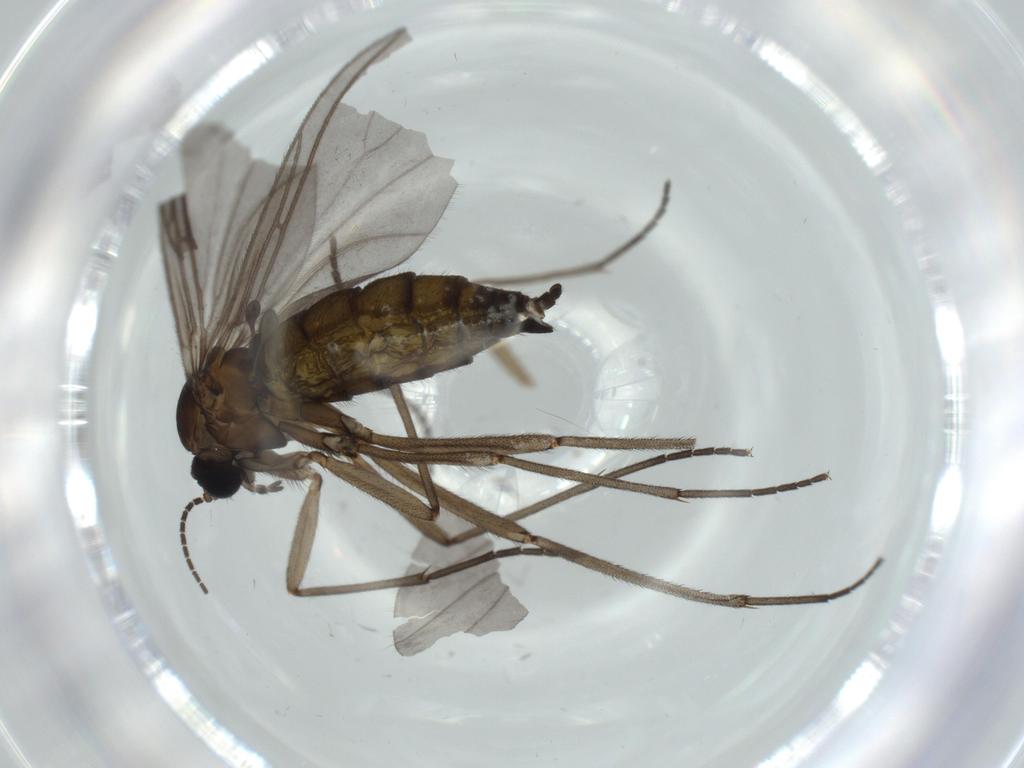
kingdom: Animalia
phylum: Arthropoda
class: Insecta
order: Diptera
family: Sciaridae
